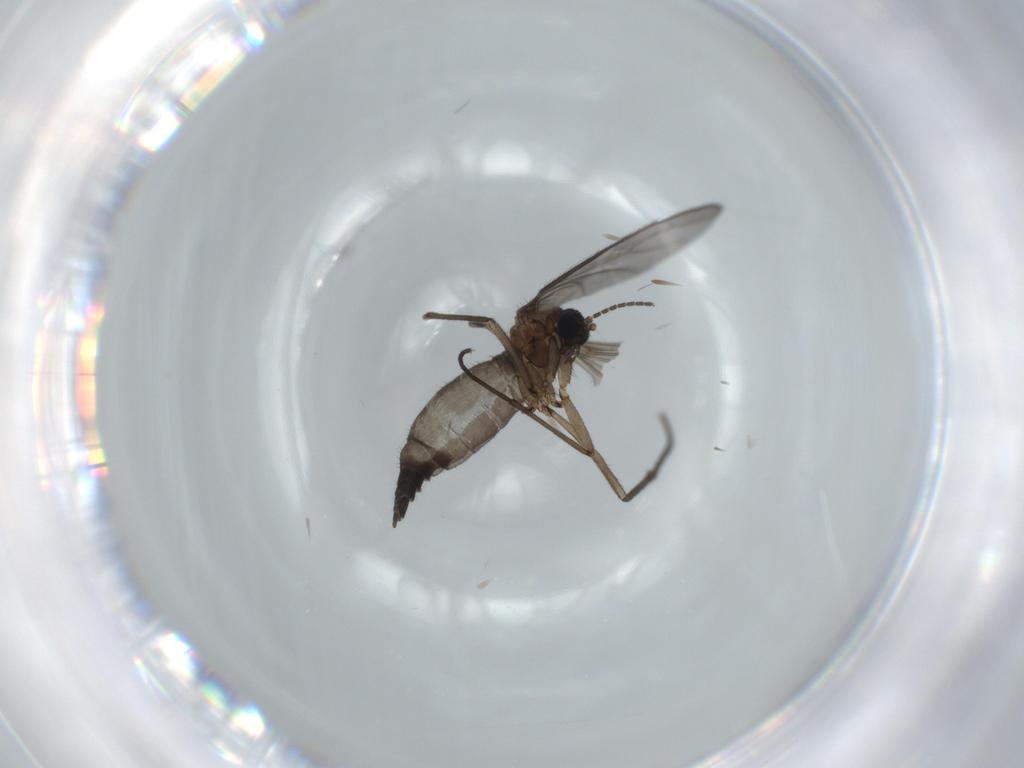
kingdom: Animalia
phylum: Arthropoda
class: Insecta
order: Diptera
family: Sciaridae
